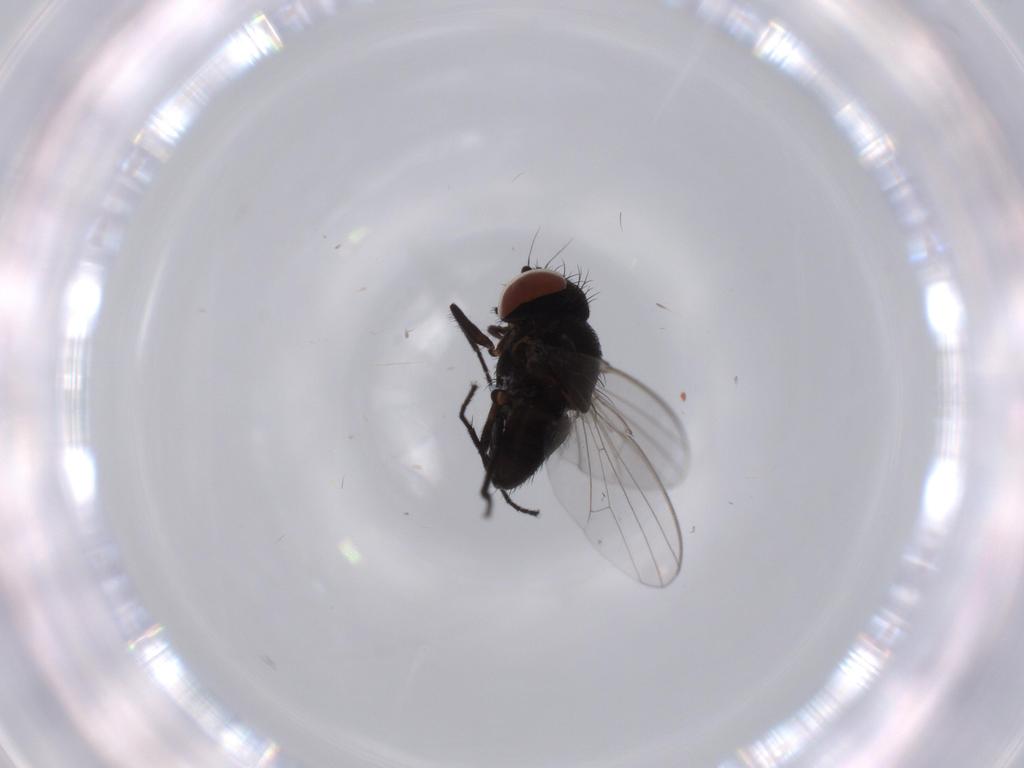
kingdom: Animalia
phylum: Arthropoda
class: Insecta
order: Diptera
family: Milichiidae
